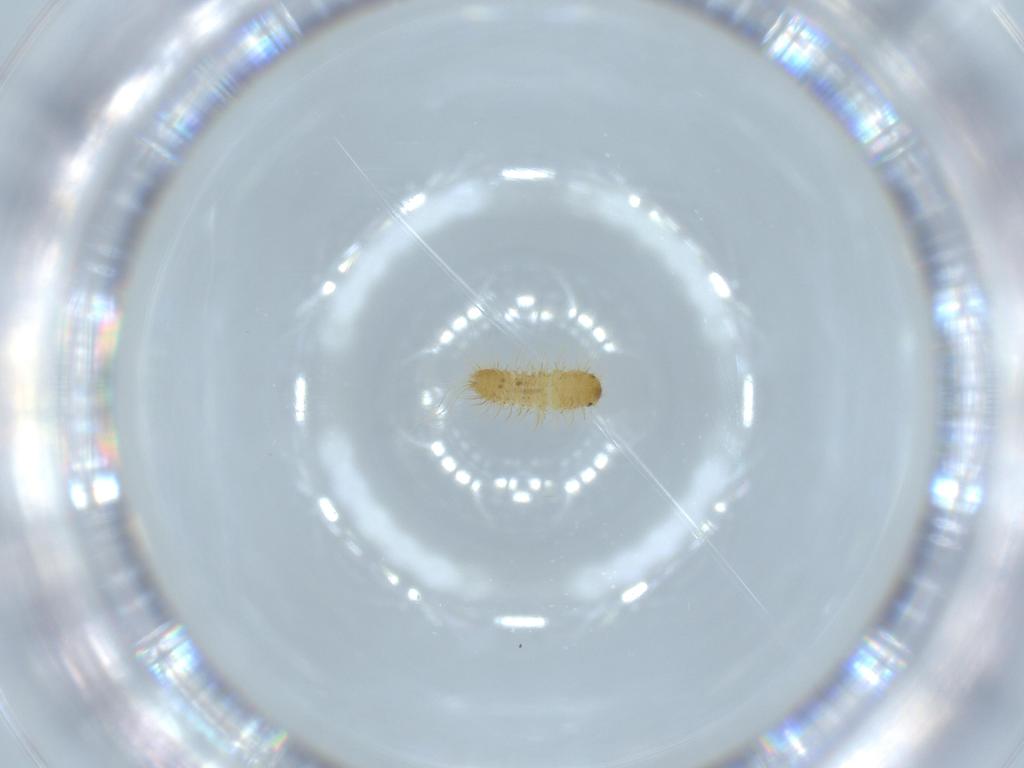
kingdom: Animalia
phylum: Arthropoda
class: Insecta
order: Coleoptera
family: Dermestidae
